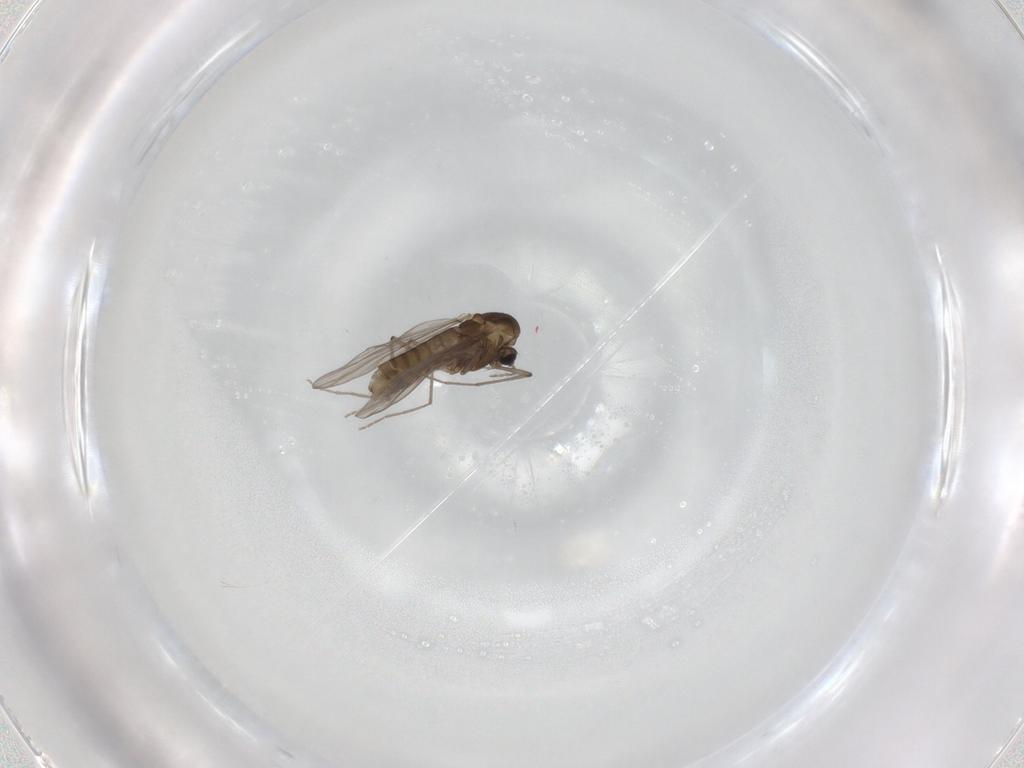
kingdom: Animalia
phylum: Arthropoda
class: Insecta
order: Diptera
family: Chironomidae
